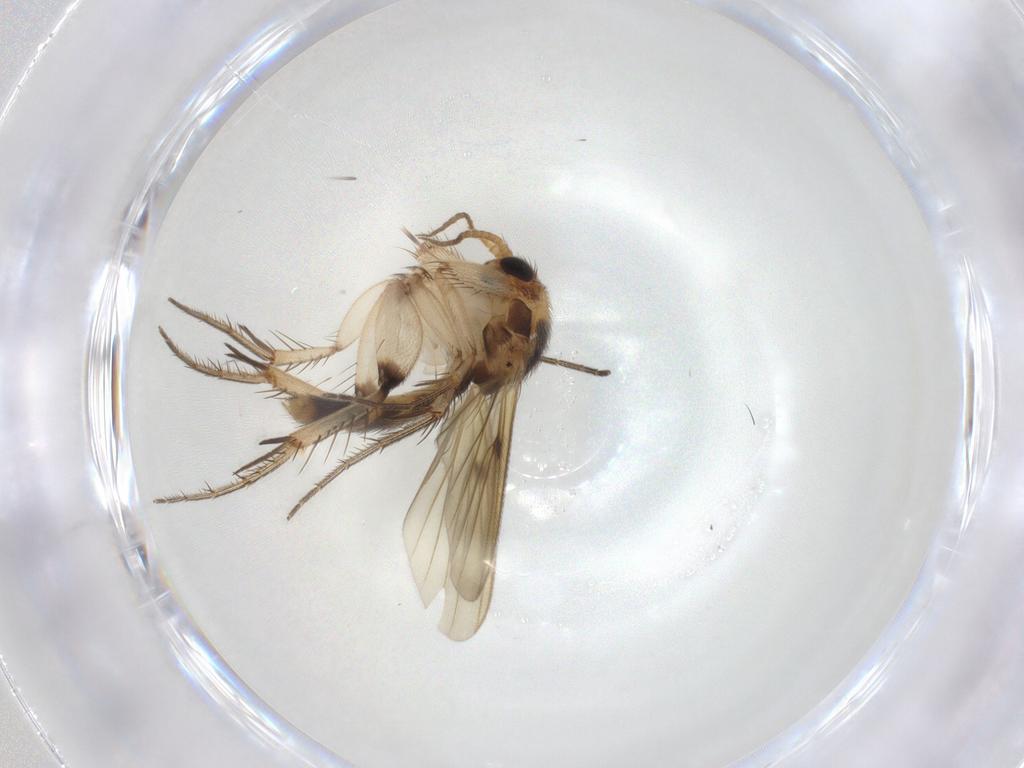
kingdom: Animalia
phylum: Arthropoda
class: Insecta
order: Diptera
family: Mycetophilidae
